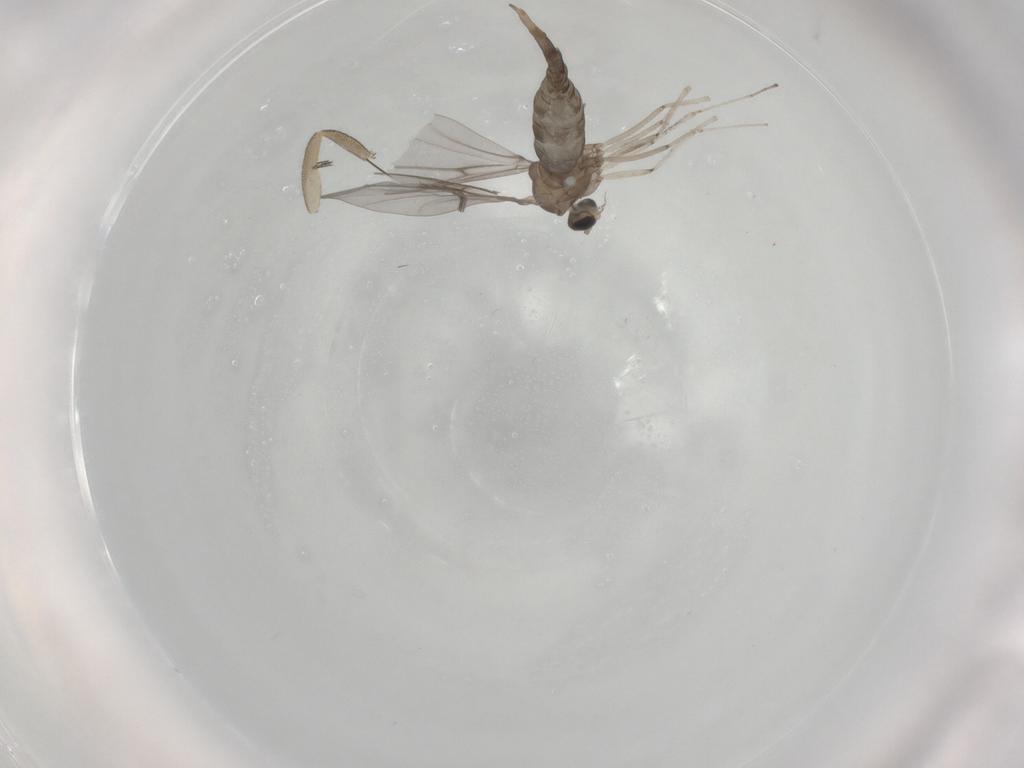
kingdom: Animalia
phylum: Arthropoda
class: Insecta
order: Diptera
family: Cecidomyiidae
